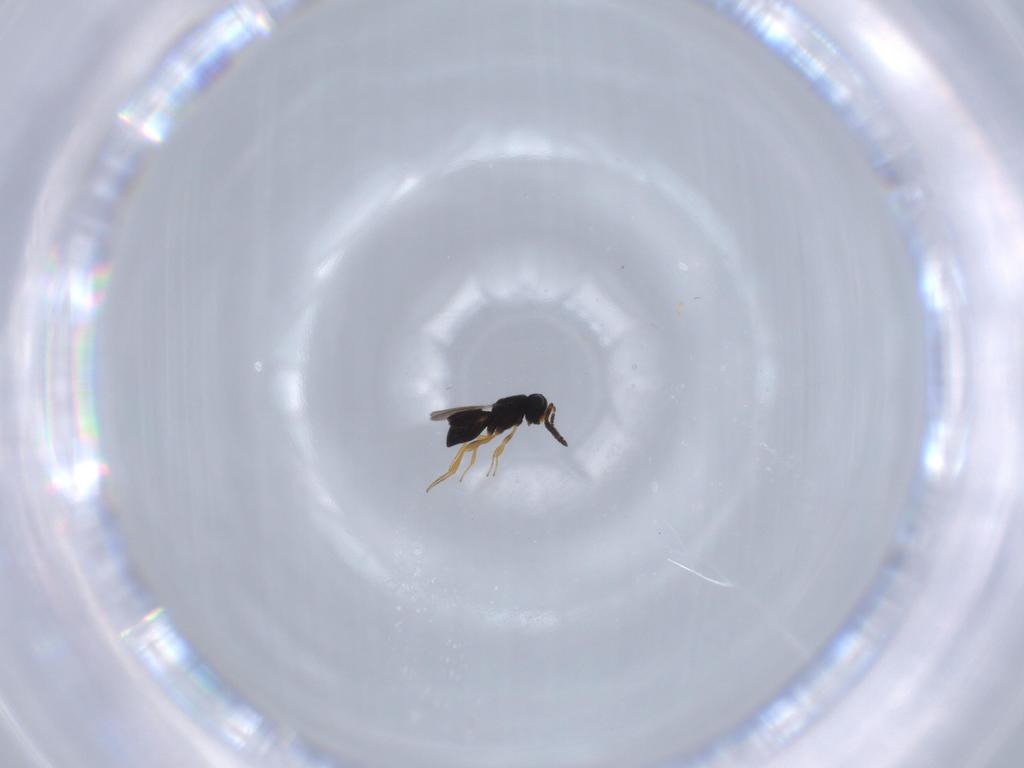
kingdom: Animalia
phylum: Arthropoda
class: Insecta
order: Hymenoptera
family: Scelionidae
